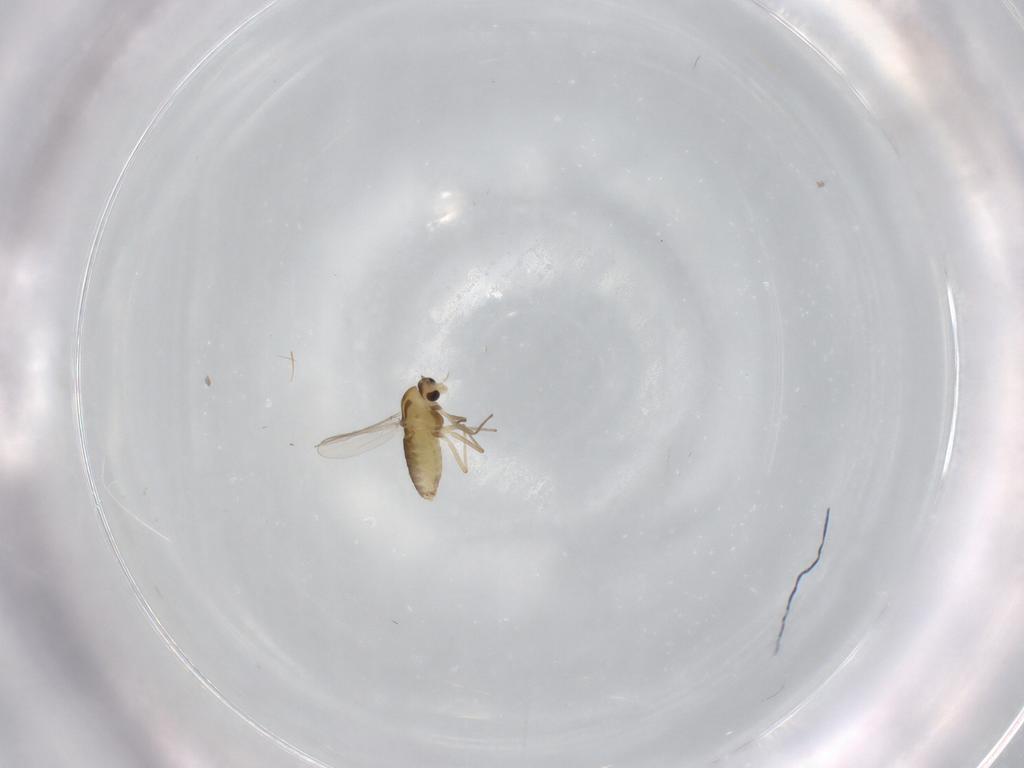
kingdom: Animalia
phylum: Arthropoda
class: Insecta
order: Diptera
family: Chironomidae
